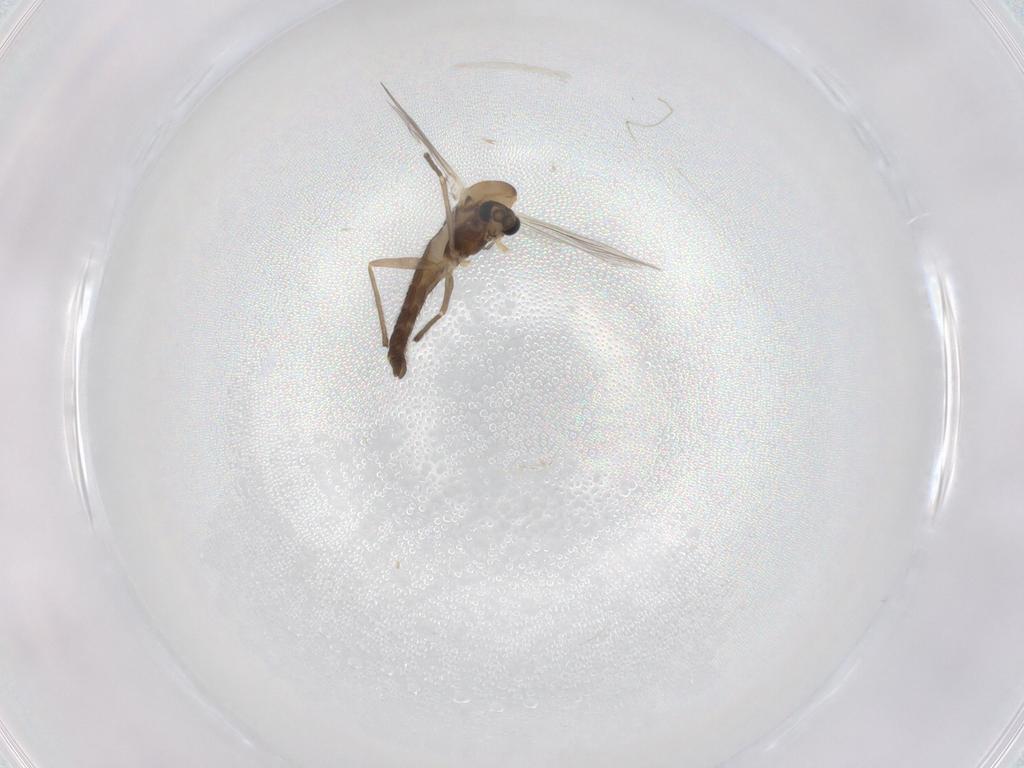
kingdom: Animalia
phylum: Arthropoda
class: Insecta
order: Diptera
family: Chironomidae
